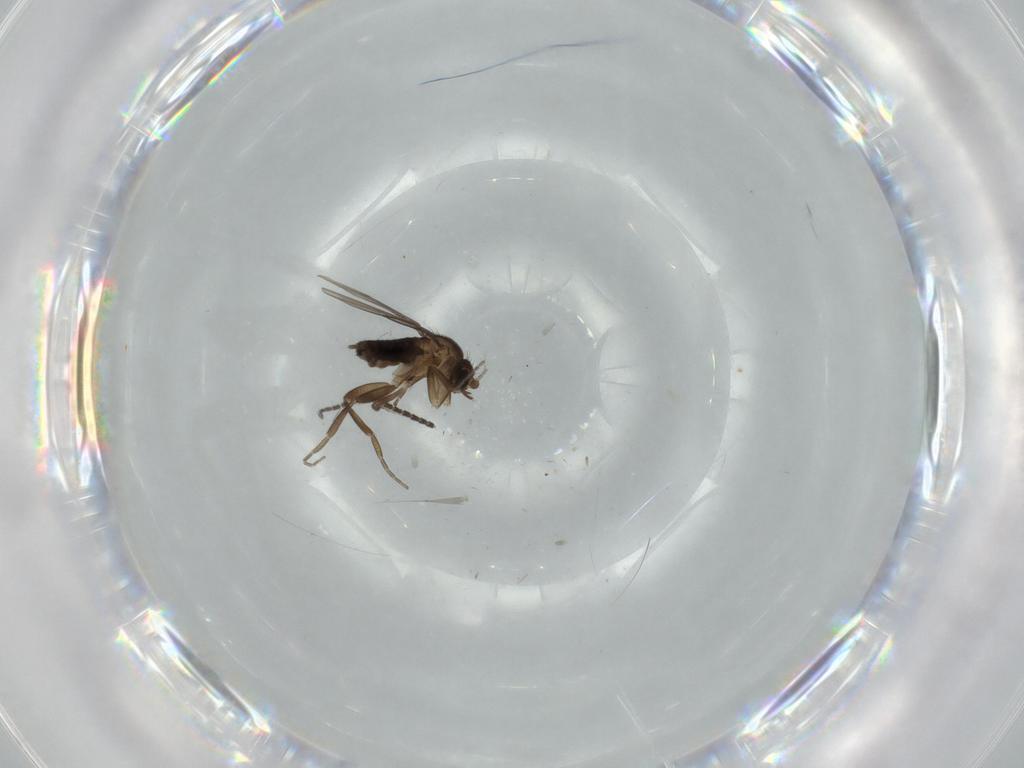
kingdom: Animalia
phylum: Arthropoda
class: Insecta
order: Diptera
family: Phoridae
